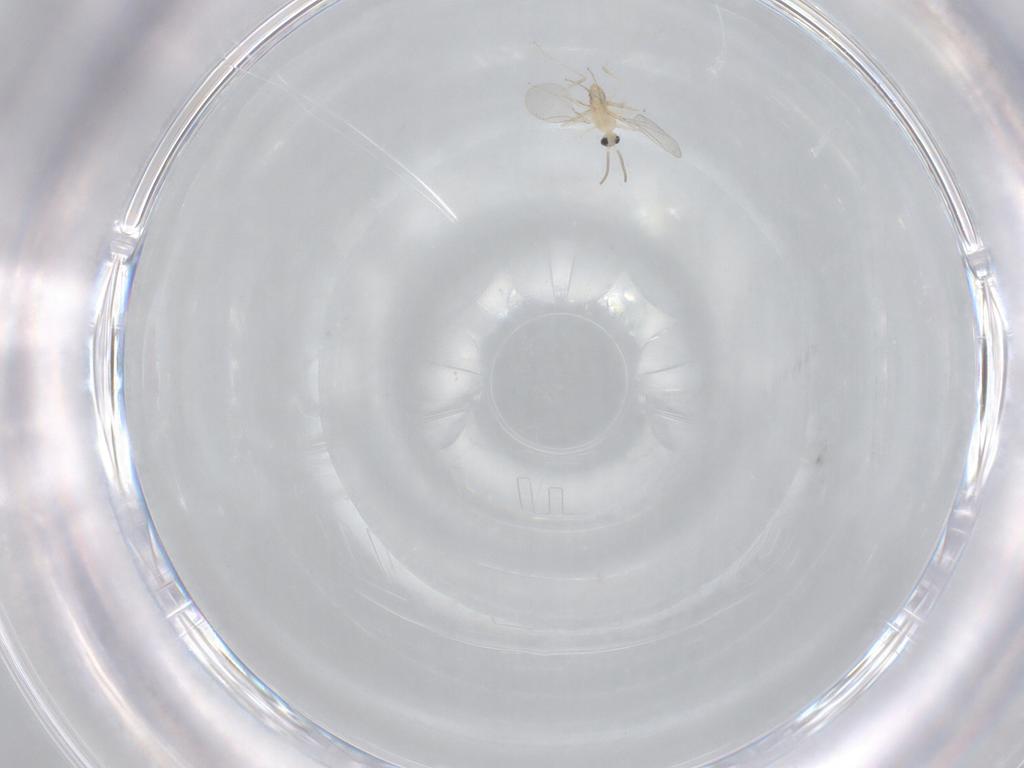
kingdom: Animalia
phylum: Arthropoda
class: Insecta
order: Diptera
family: Cecidomyiidae
